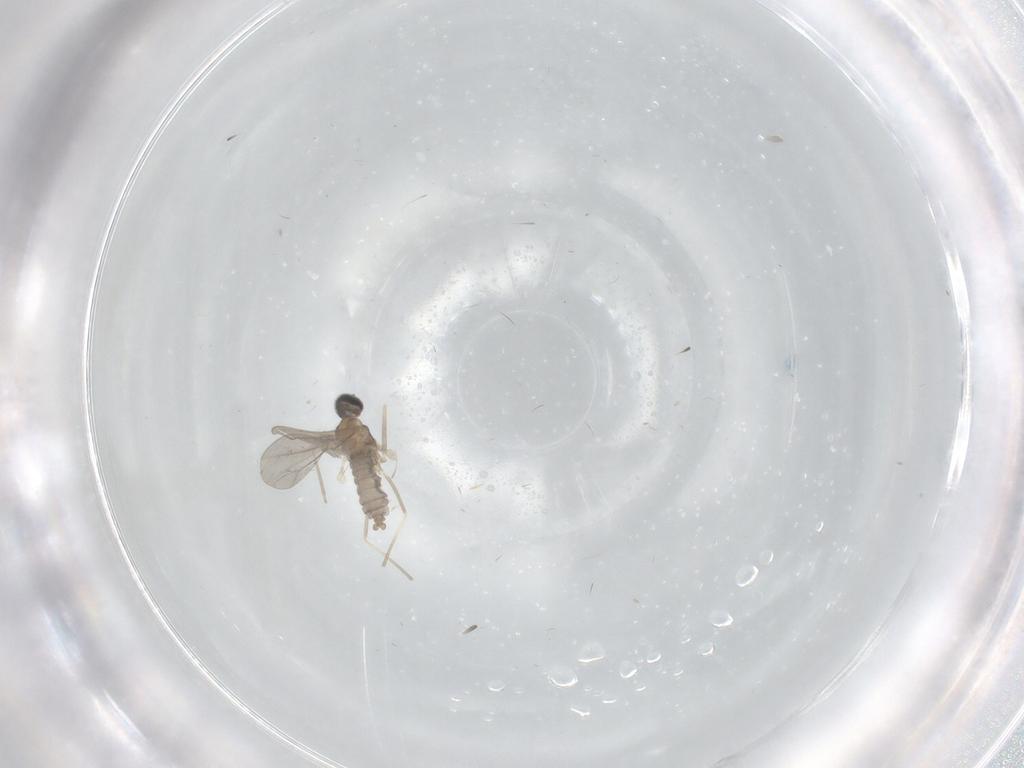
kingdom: Animalia
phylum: Arthropoda
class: Insecta
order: Diptera
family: Cecidomyiidae
